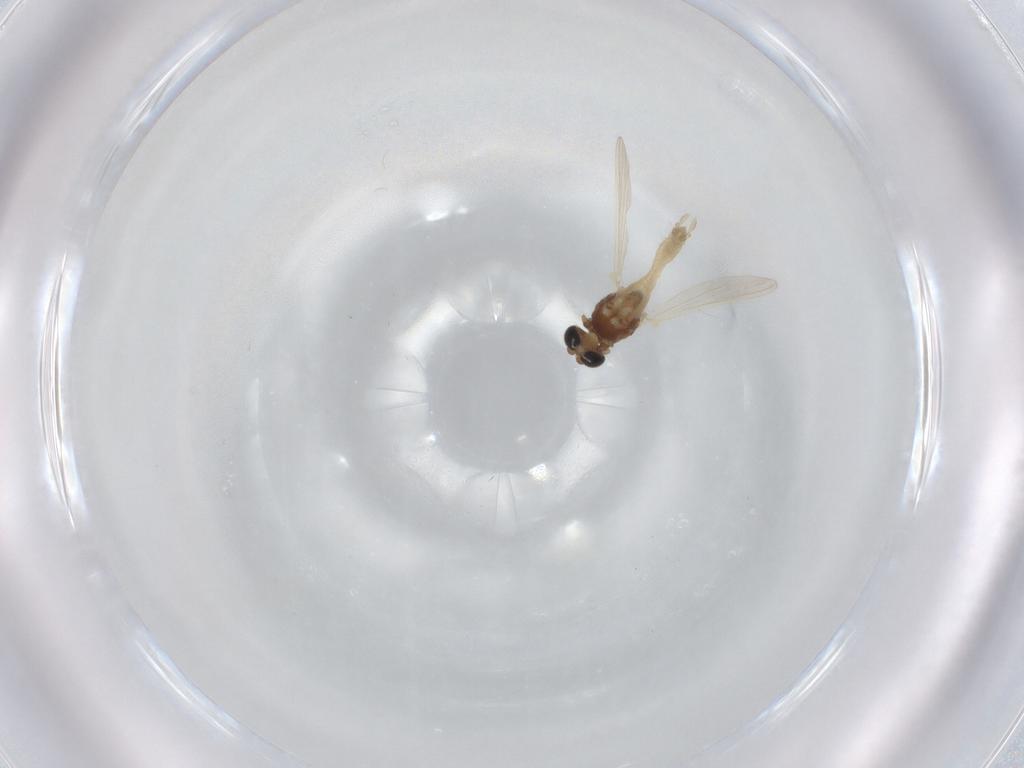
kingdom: Animalia
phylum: Arthropoda
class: Insecta
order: Diptera
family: Chironomidae
